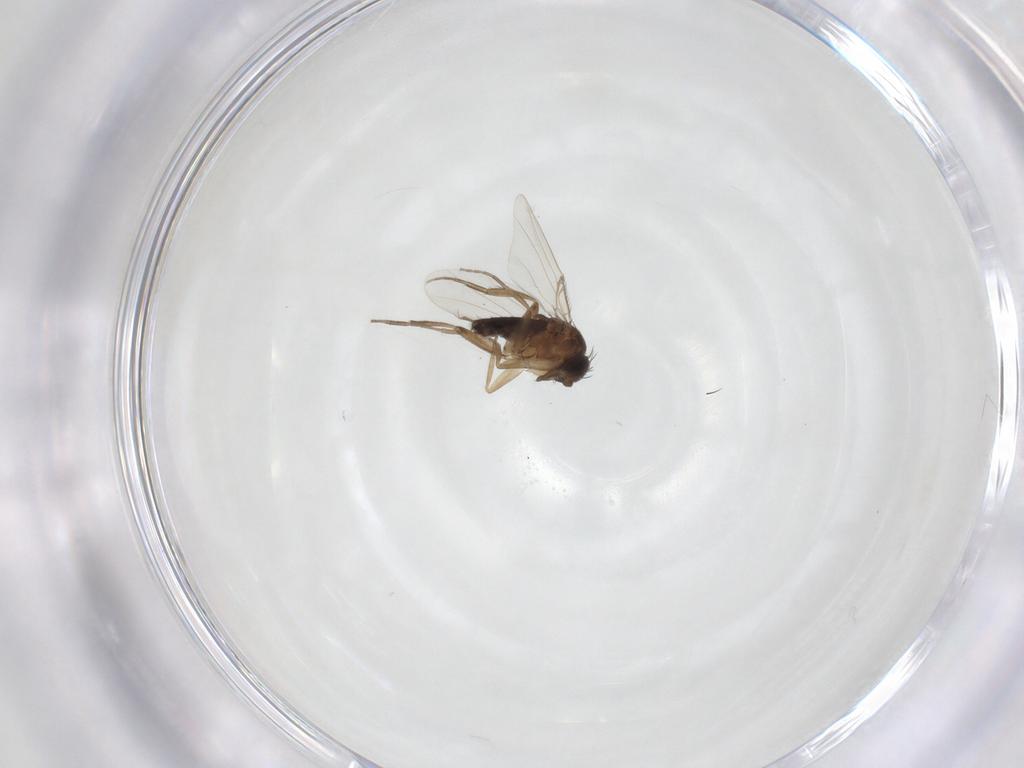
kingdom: Animalia
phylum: Arthropoda
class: Insecta
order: Diptera
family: Phoridae
